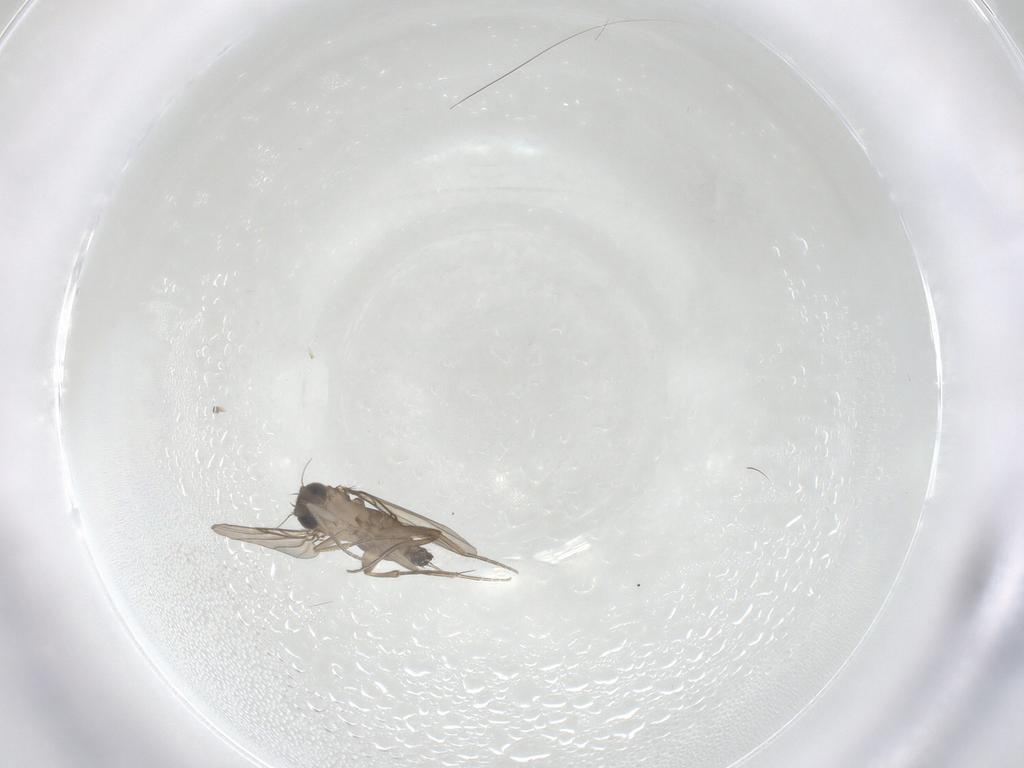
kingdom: Animalia
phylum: Arthropoda
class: Insecta
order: Diptera
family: Phoridae
